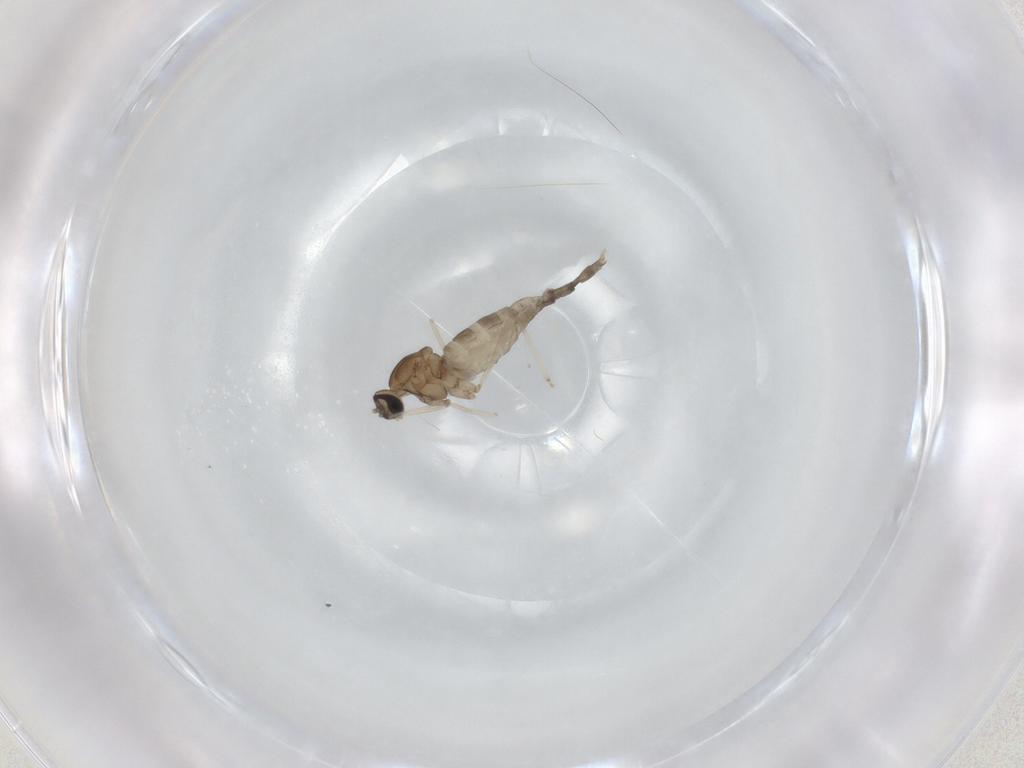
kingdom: Animalia
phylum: Arthropoda
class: Insecta
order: Diptera
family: Cecidomyiidae
